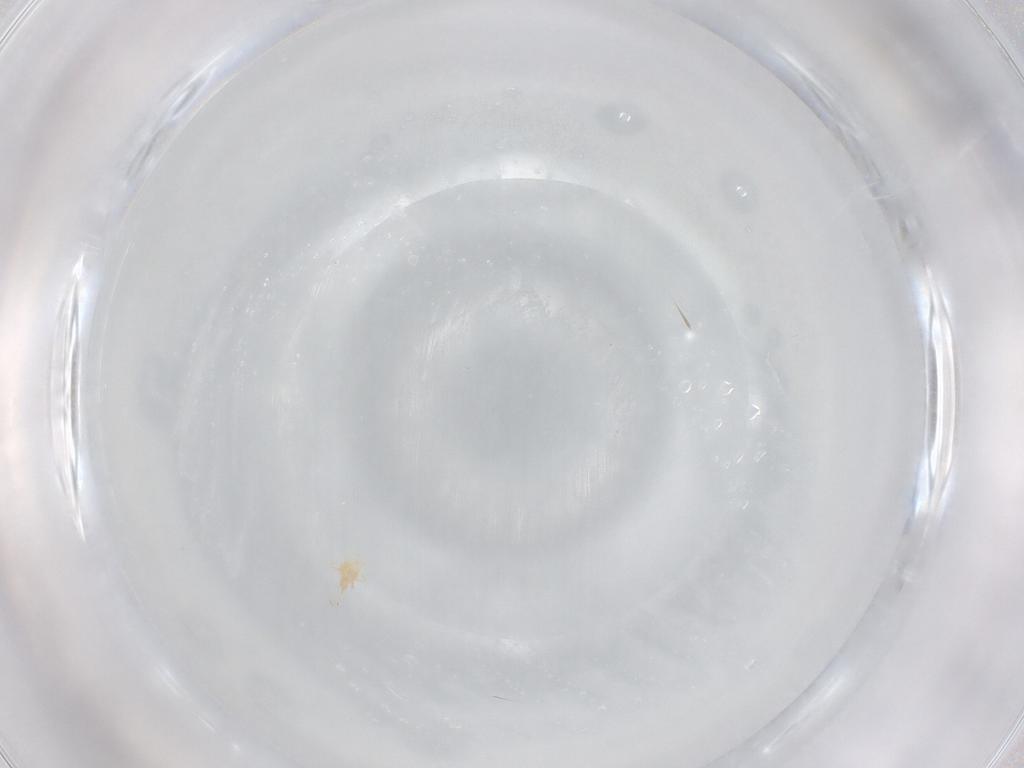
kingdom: Animalia
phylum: Arthropoda
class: Arachnida
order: Trombidiformes
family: Cunaxidae
